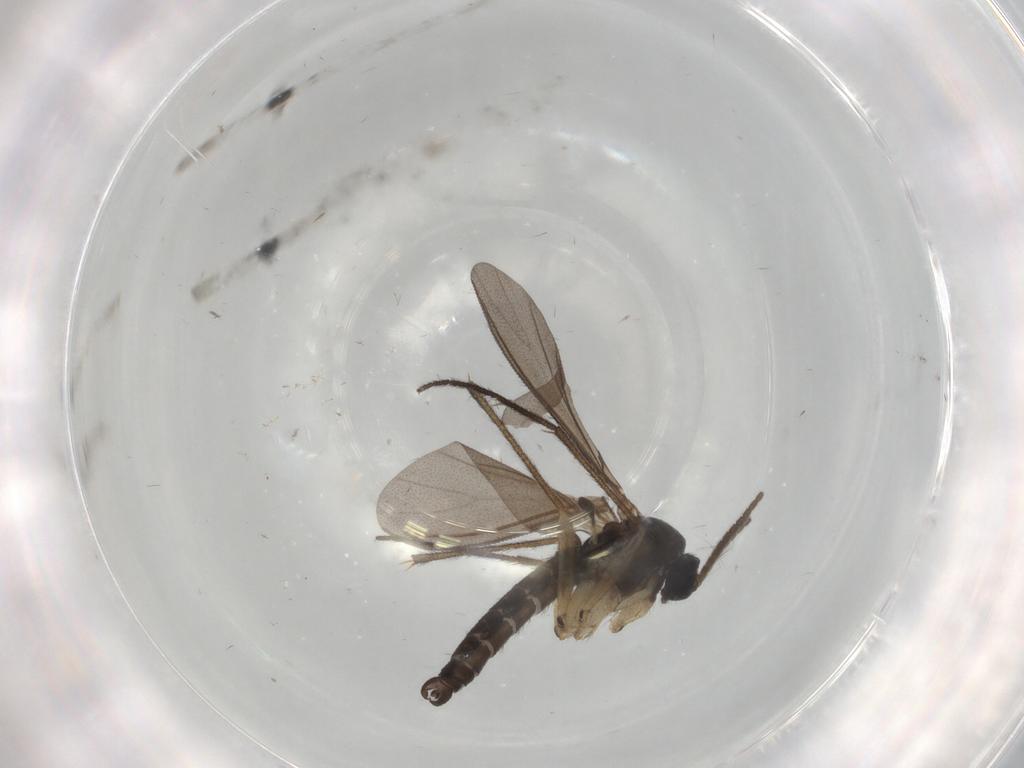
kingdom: Animalia
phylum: Arthropoda
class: Insecta
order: Diptera
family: Sciaridae
